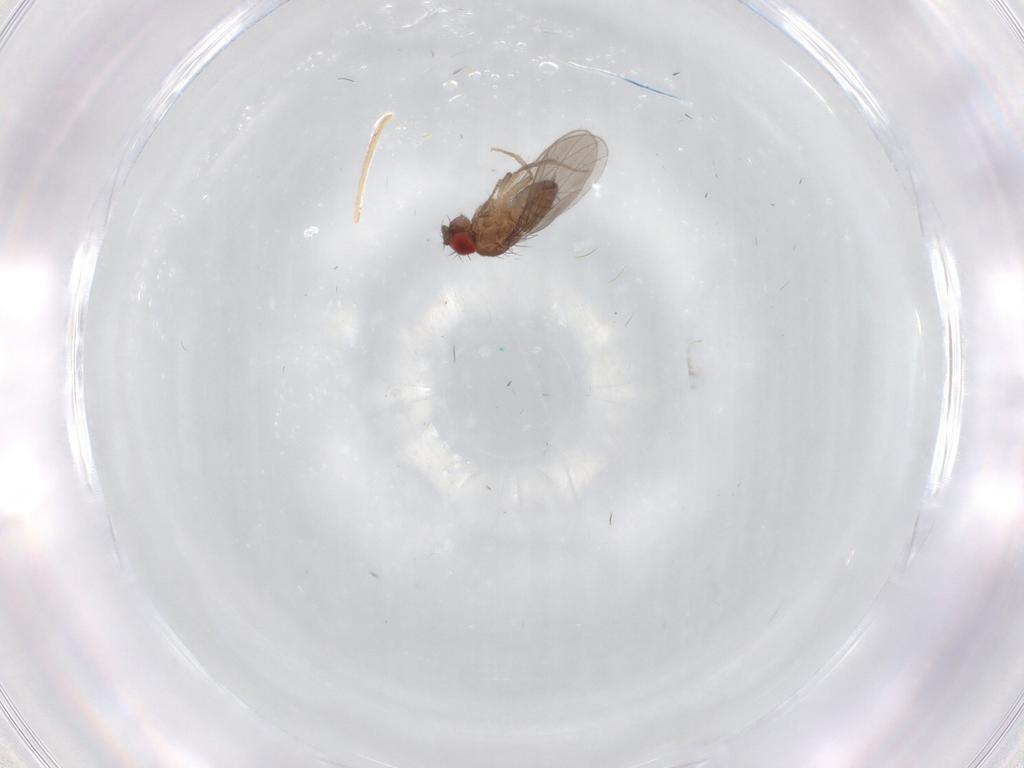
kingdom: Animalia
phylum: Arthropoda
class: Insecta
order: Diptera
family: Drosophilidae
